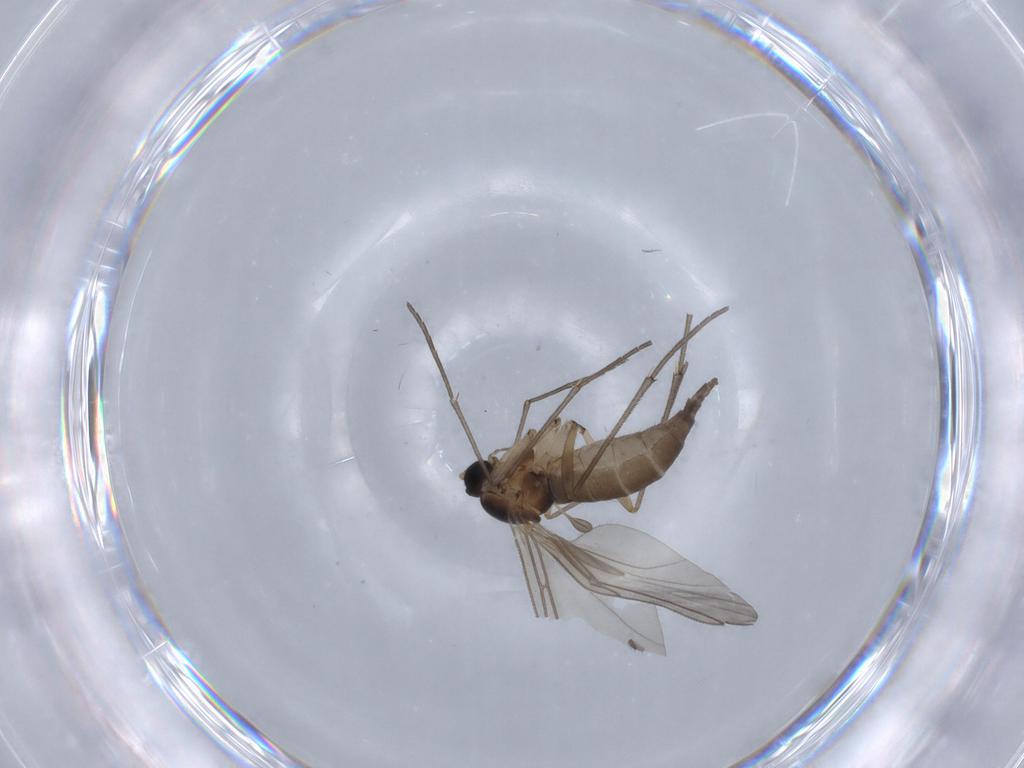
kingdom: Animalia
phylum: Arthropoda
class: Insecta
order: Diptera
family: Sciaridae
